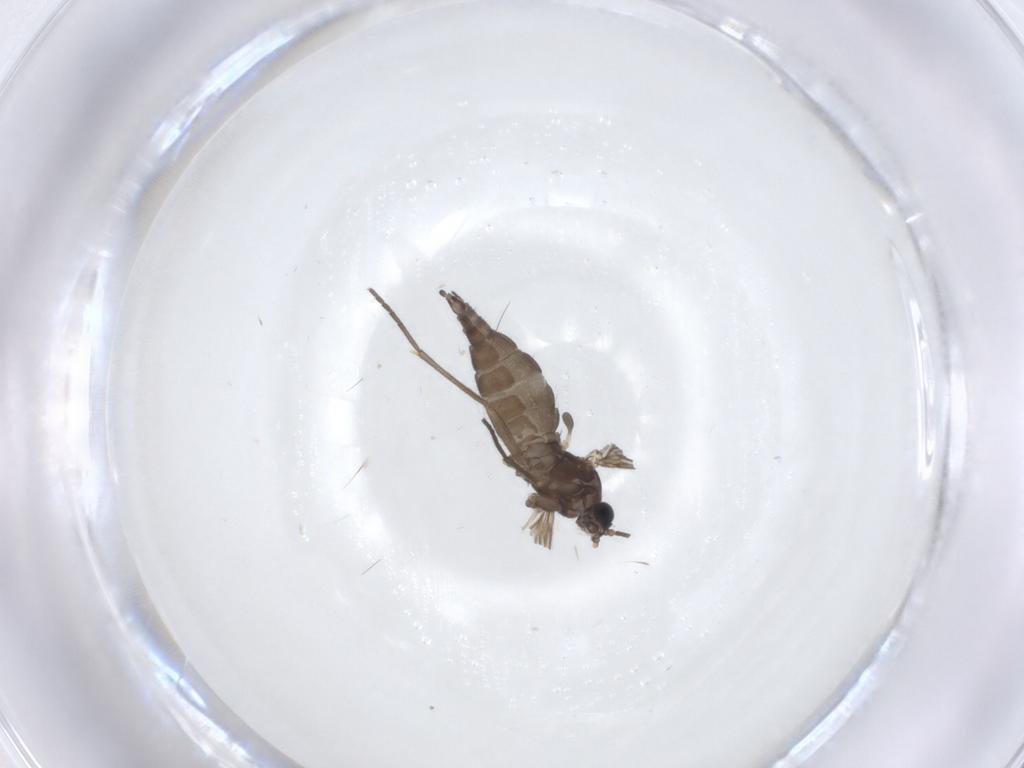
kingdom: Animalia
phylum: Arthropoda
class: Insecta
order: Diptera
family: Sciaridae
